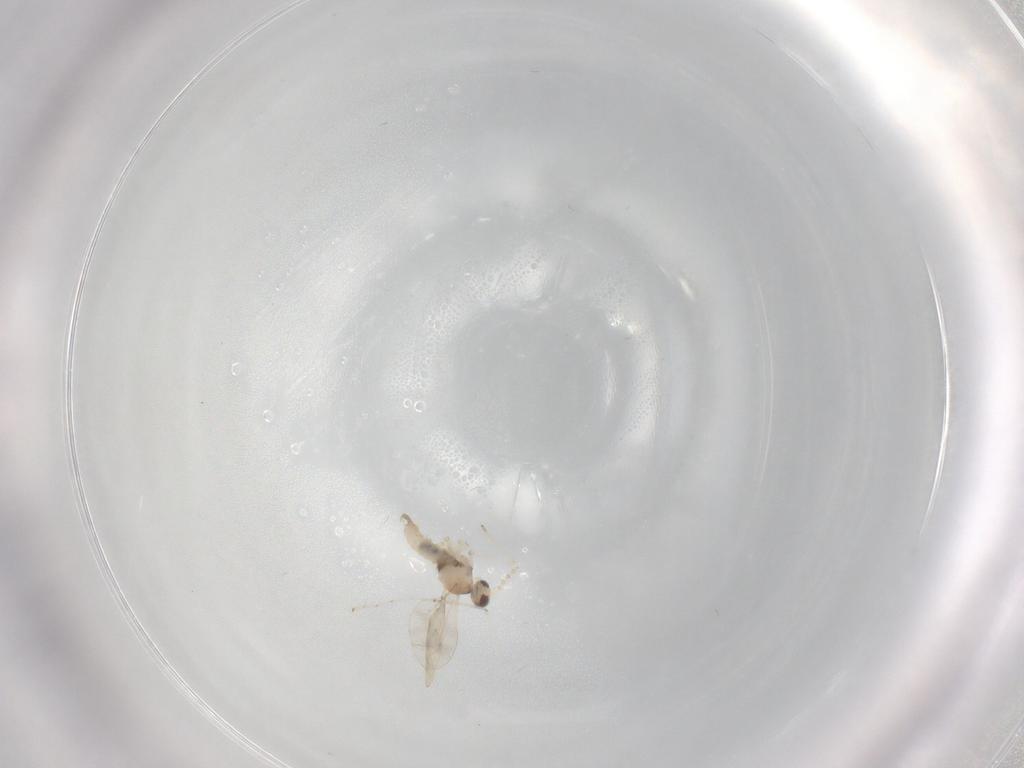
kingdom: Animalia
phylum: Arthropoda
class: Insecta
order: Diptera
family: Cecidomyiidae
